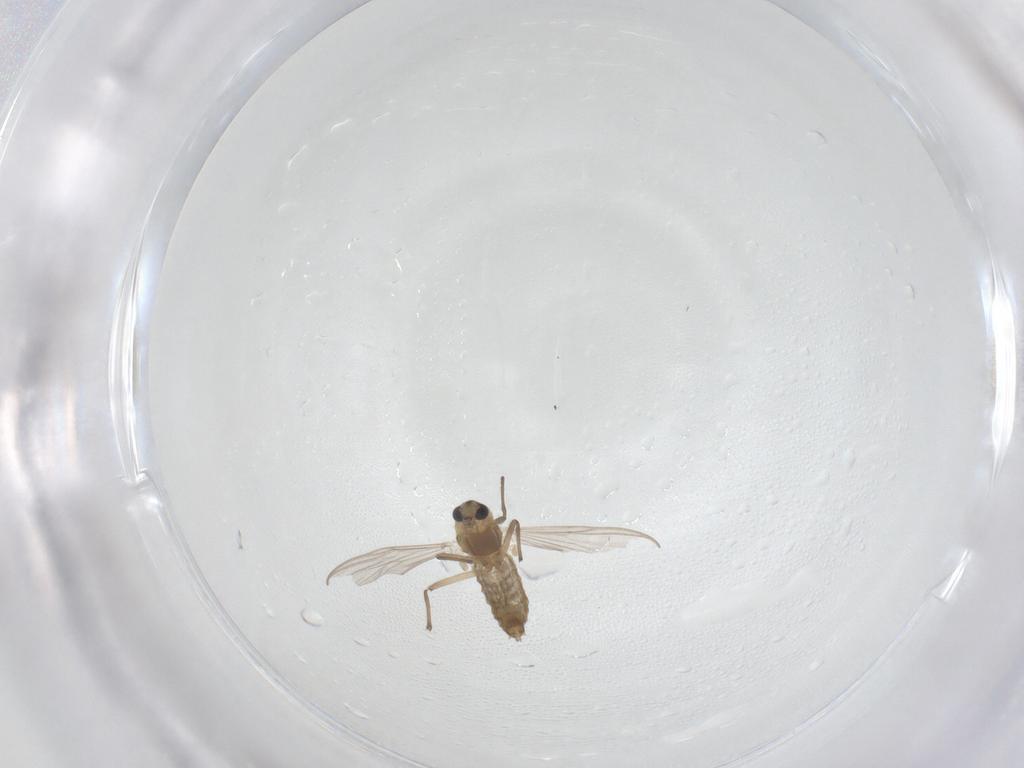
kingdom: Animalia
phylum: Arthropoda
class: Insecta
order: Diptera
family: Chironomidae
